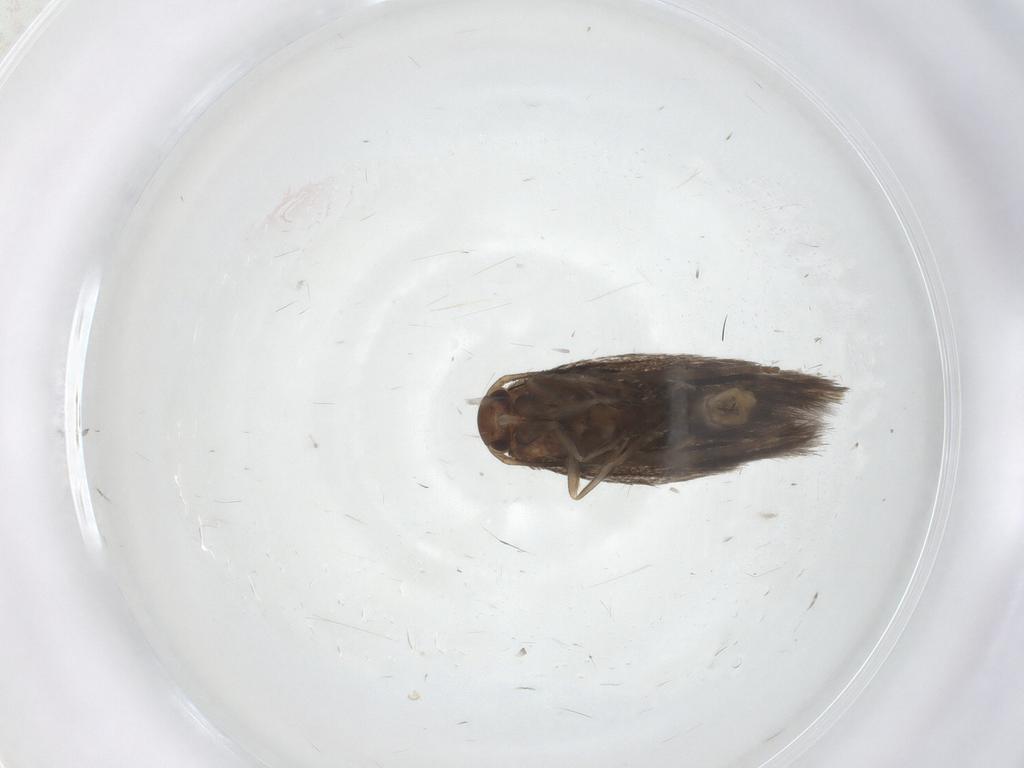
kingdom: Animalia
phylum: Arthropoda
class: Insecta
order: Lepidoptera
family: Elachistidae
